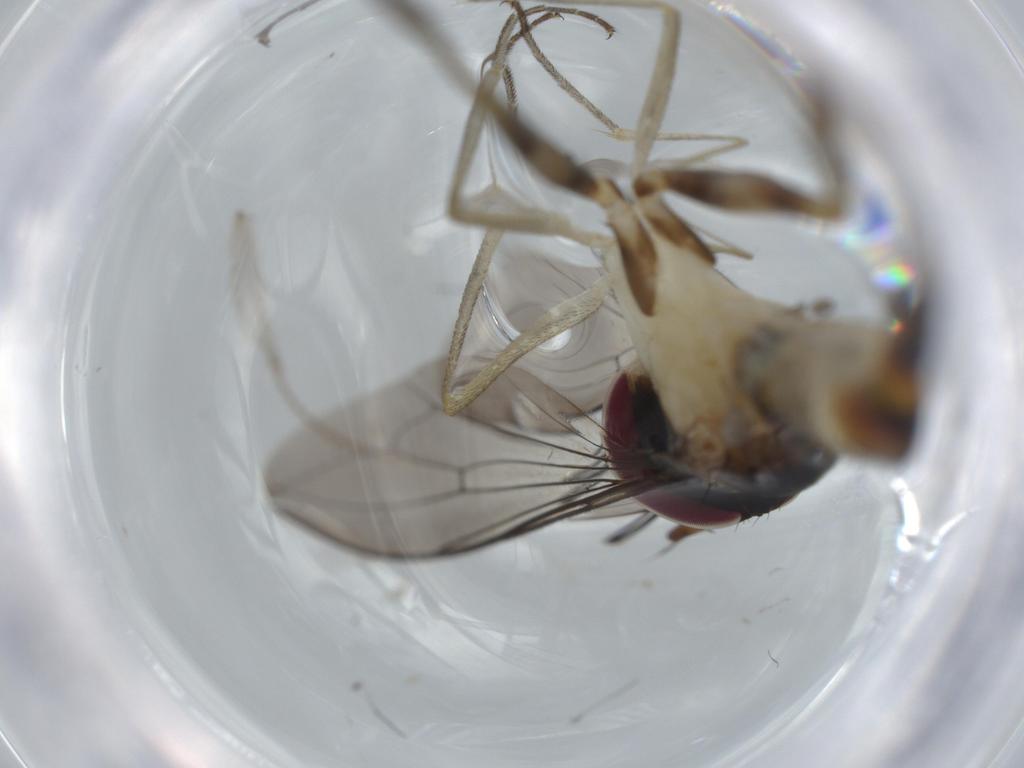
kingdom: Animalia
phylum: Arthropoda
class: Insecta
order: Diptera
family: Conopidae
